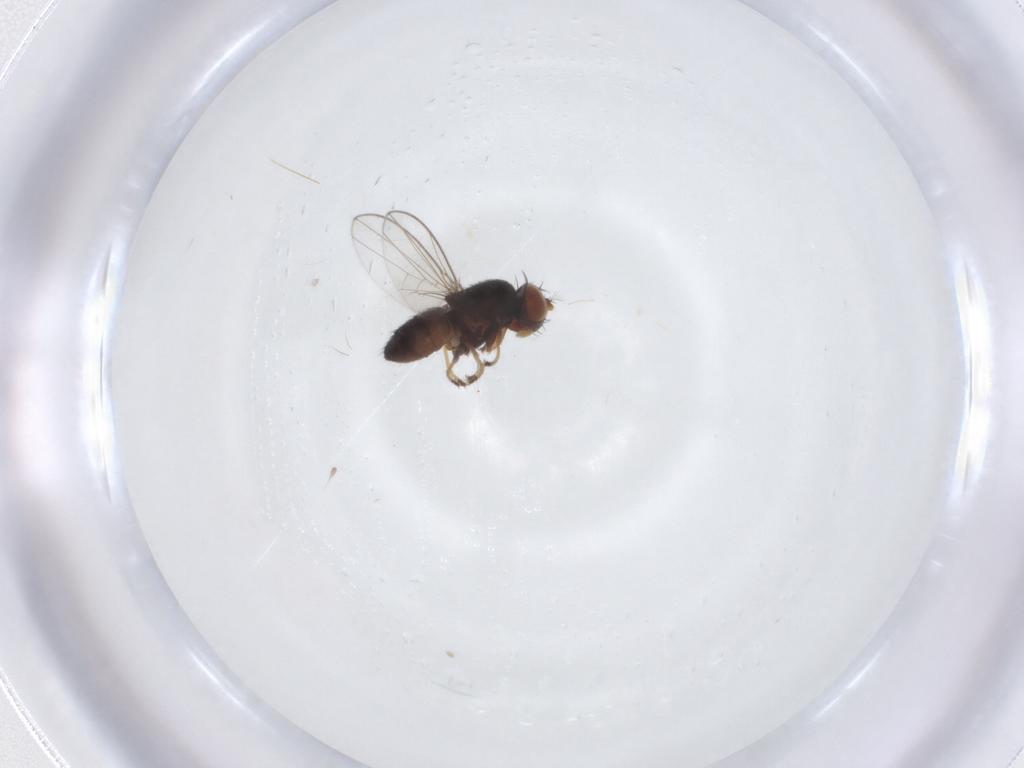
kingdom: Animalia
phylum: Arthropoda
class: Insecta
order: Diptera
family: Ephydridae
